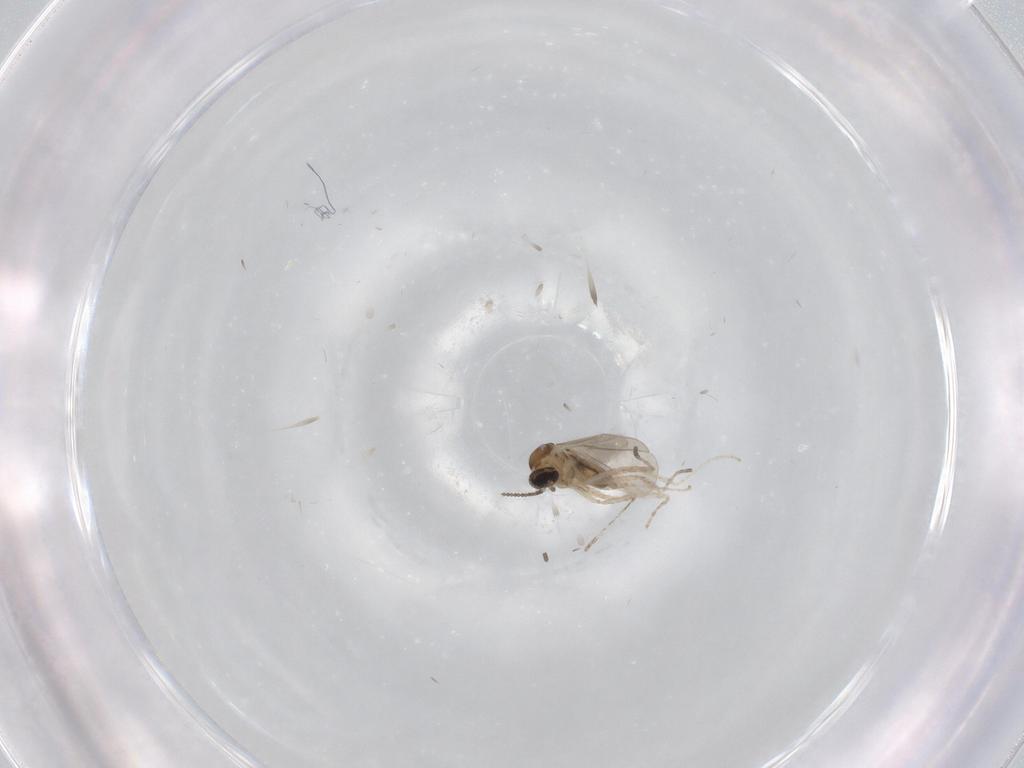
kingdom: Animalia
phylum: Arthropoda
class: Insecta
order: Diptera
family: Cecidomyiidae
